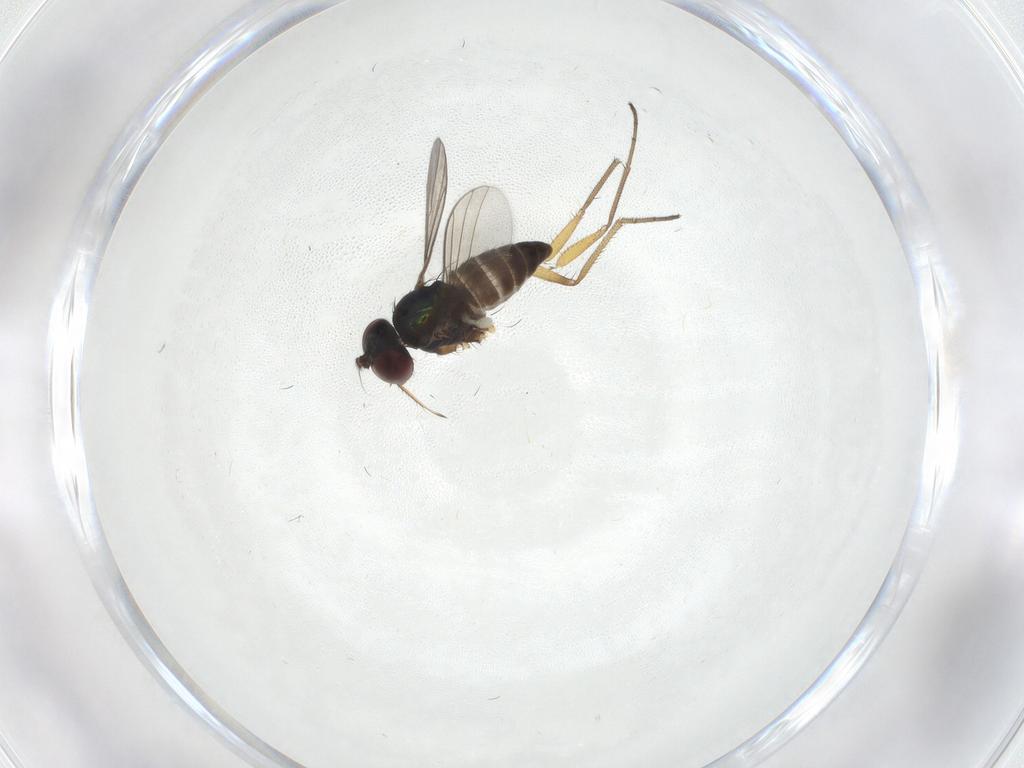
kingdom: Animalia
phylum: Arthropoda
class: Insecta
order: Diptera
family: Dolichopodidae
